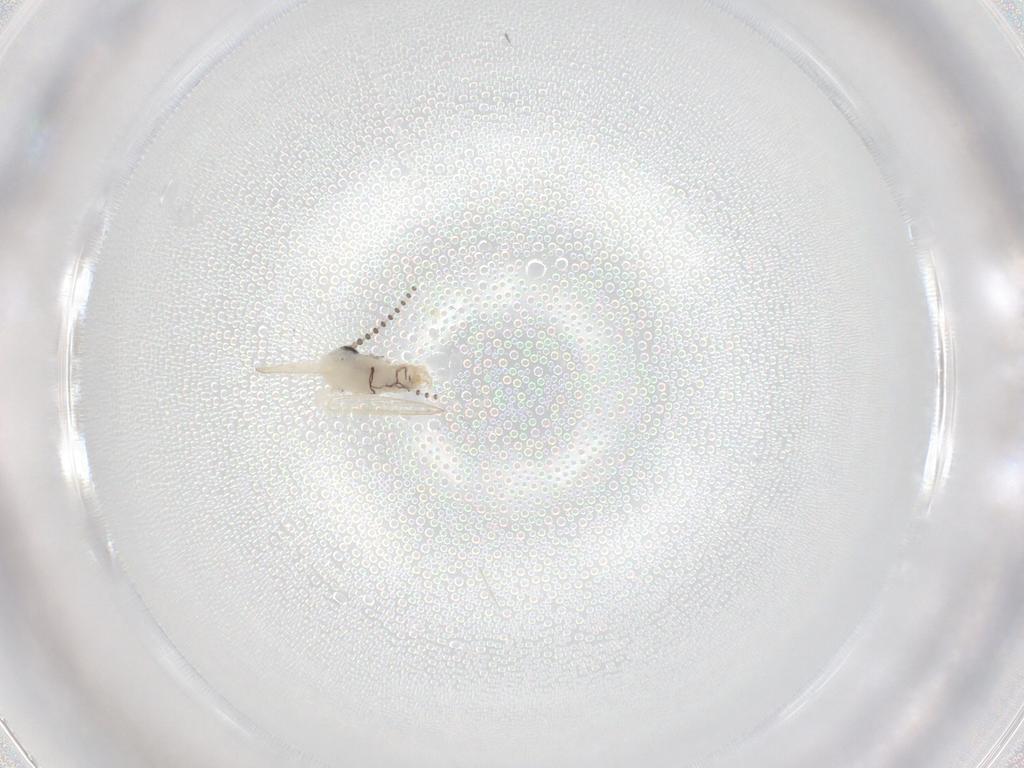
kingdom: Animalia
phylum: Arthropoda
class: Insecta
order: Diptera
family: Psychodidae
